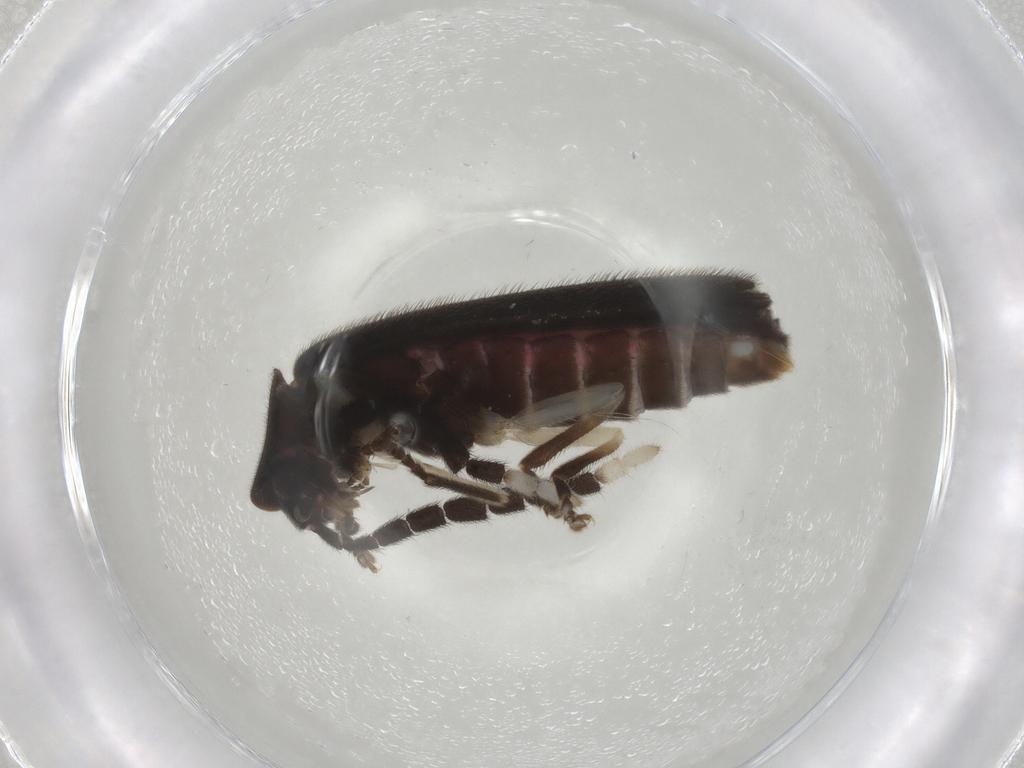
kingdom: Animalia
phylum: Arthropoda
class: Insecta
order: Coleoptera
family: Lampyridae
